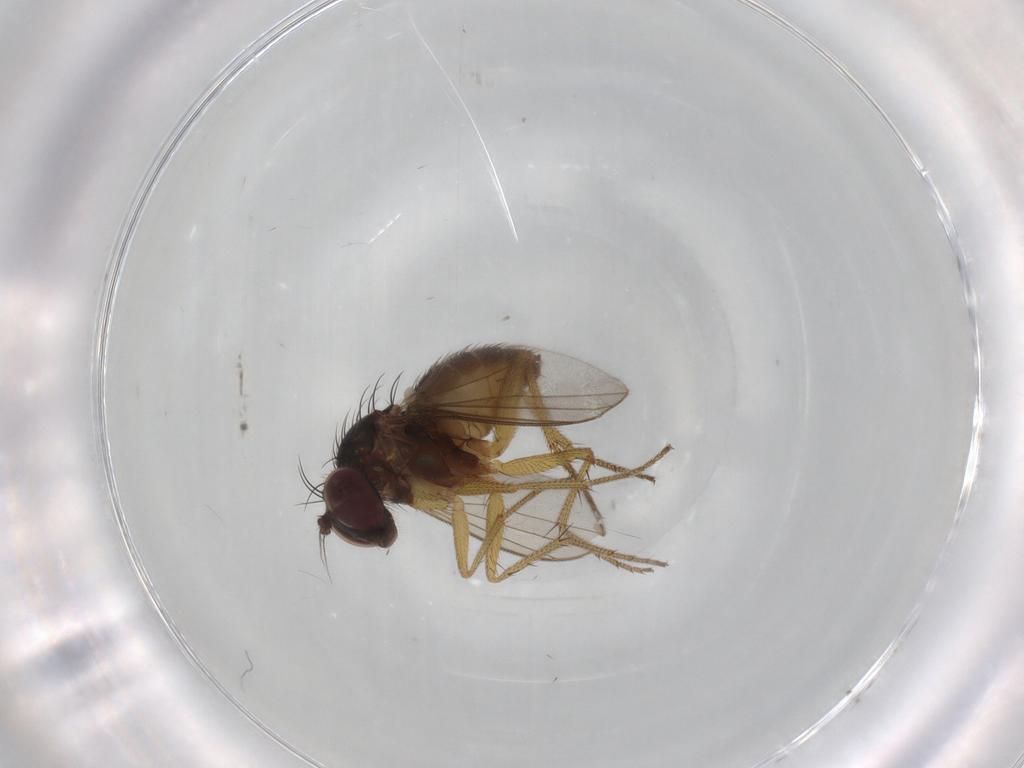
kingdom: Animalia
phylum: Arthropoda
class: Insecta
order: Diptera
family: Dolichopodidae
